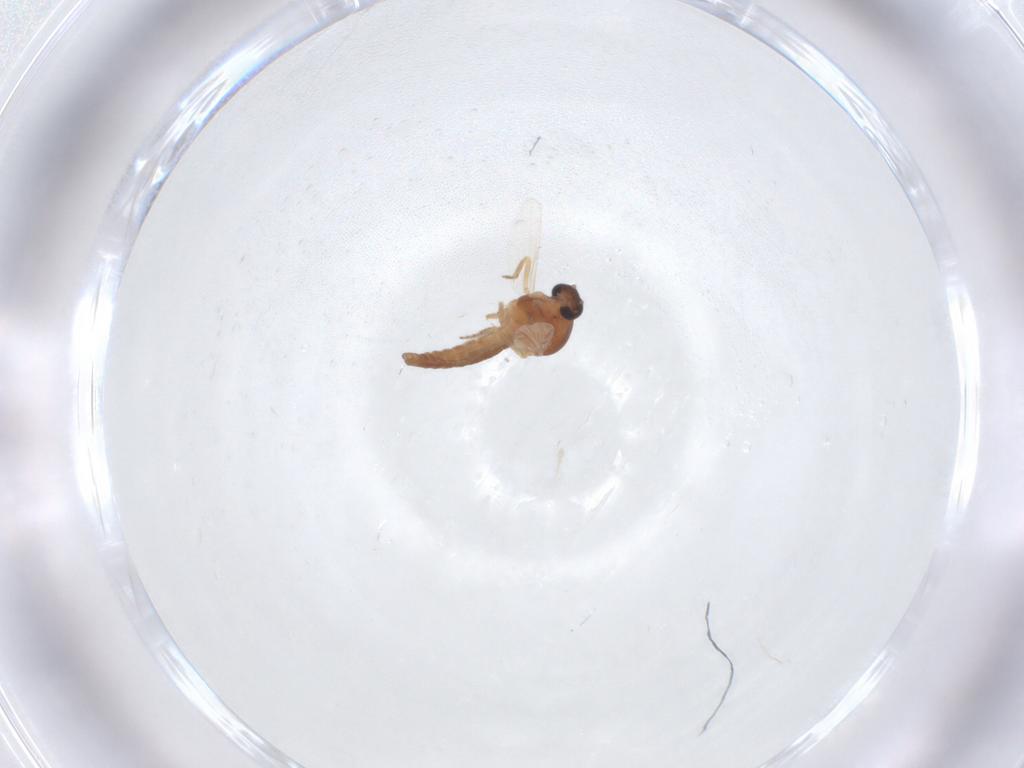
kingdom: Animalia
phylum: Arthropoda
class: Insecta
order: Diptera
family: Ceratopogonidae
